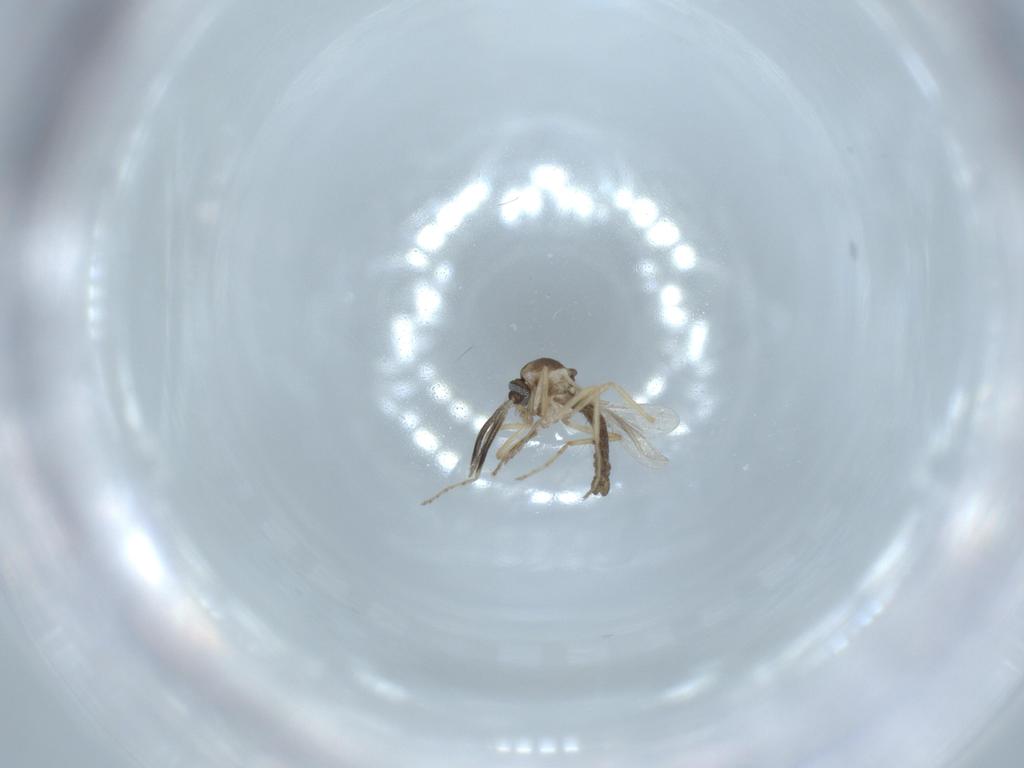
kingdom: Animalia
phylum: Arthropoda
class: Insecta
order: Diptera
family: Ceratopogonidae
